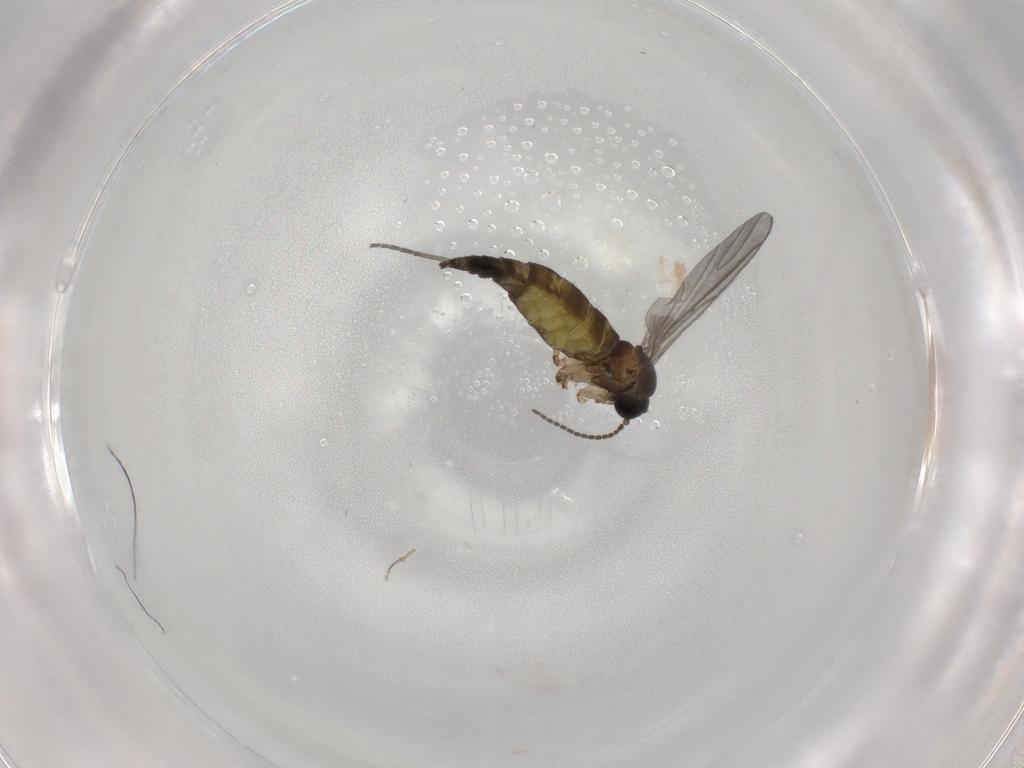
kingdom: Animalia
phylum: Arthropoda
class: Insecta
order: Diptera
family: Sciaridae
